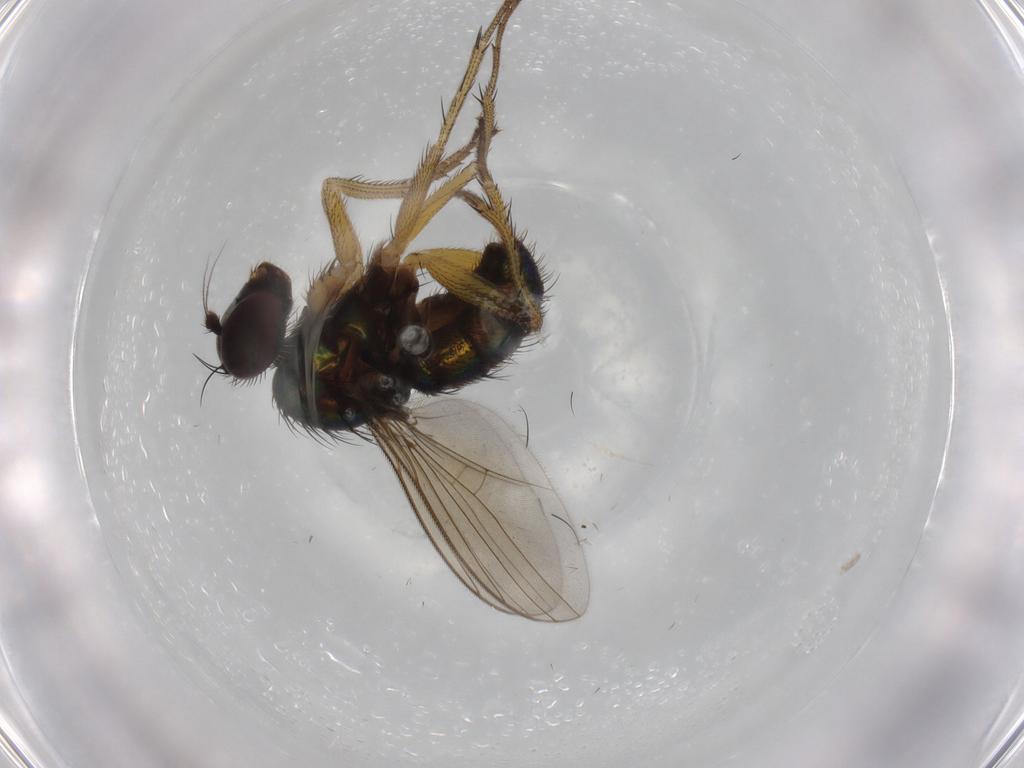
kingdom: Animalia
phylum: Arthropoda
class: Insecta
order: Diptera
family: Dolichopodidae
